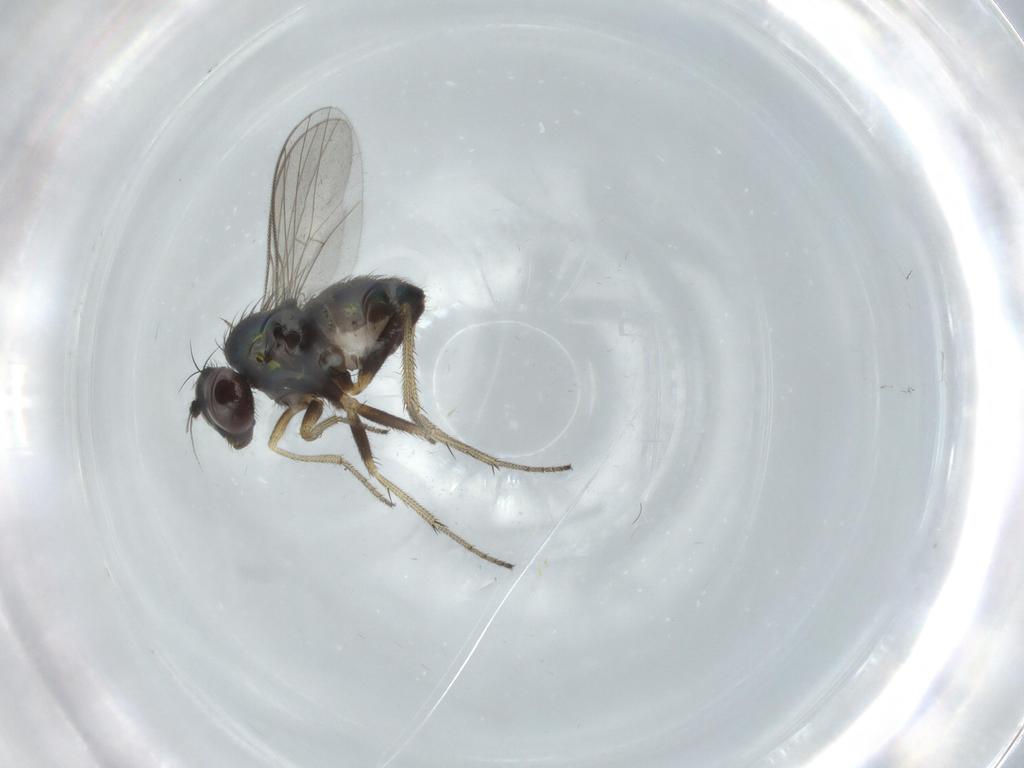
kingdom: Animalia
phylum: Arthropoda
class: Insecta
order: Diptera
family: Dolichopodidae
